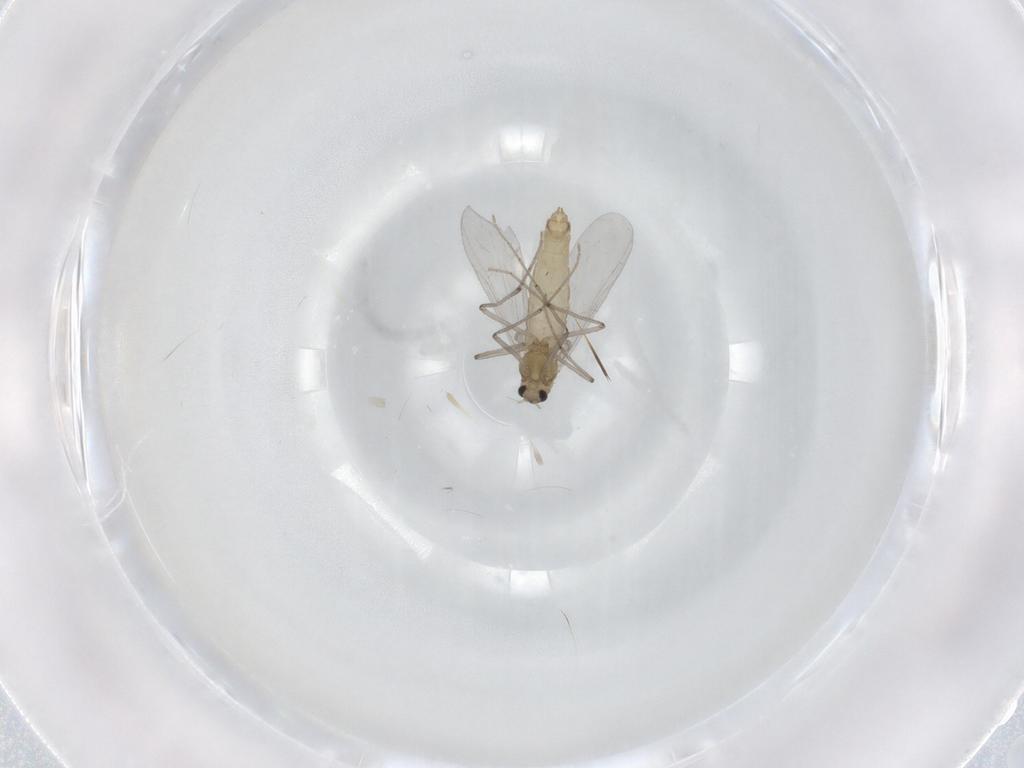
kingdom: Animalia
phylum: Arthropoda
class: Insecta
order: Diptera
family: Chironomidae
